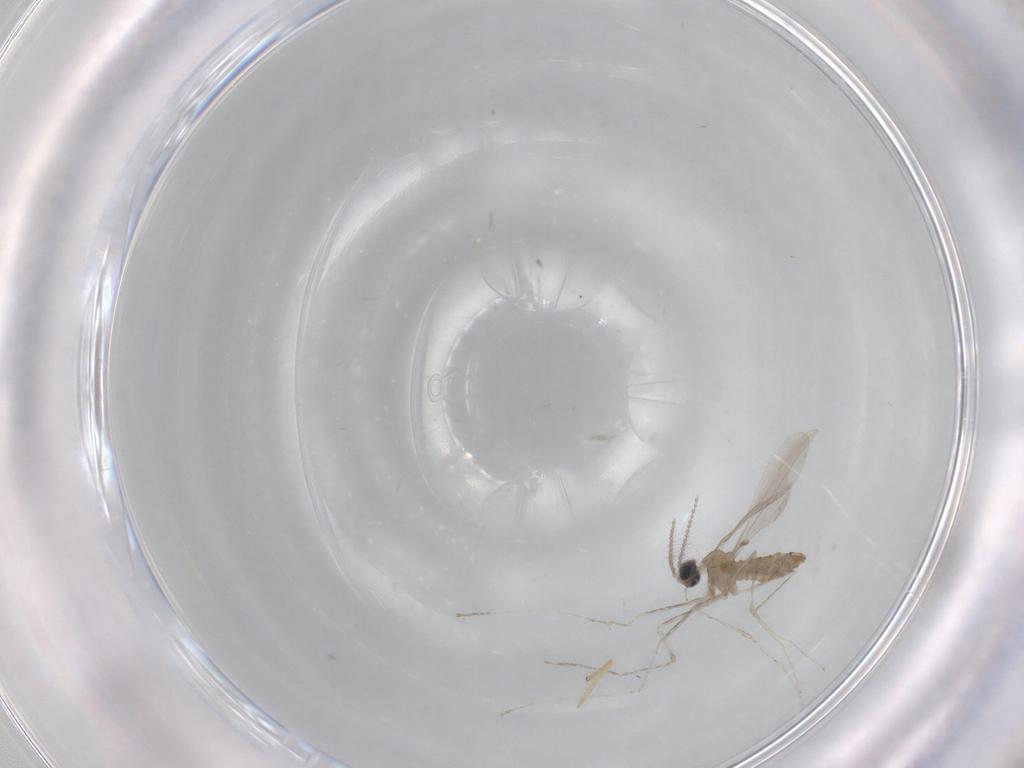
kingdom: Animalia
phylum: Arthropoda
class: Insecta
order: Diptera
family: Cecidomyiidae
